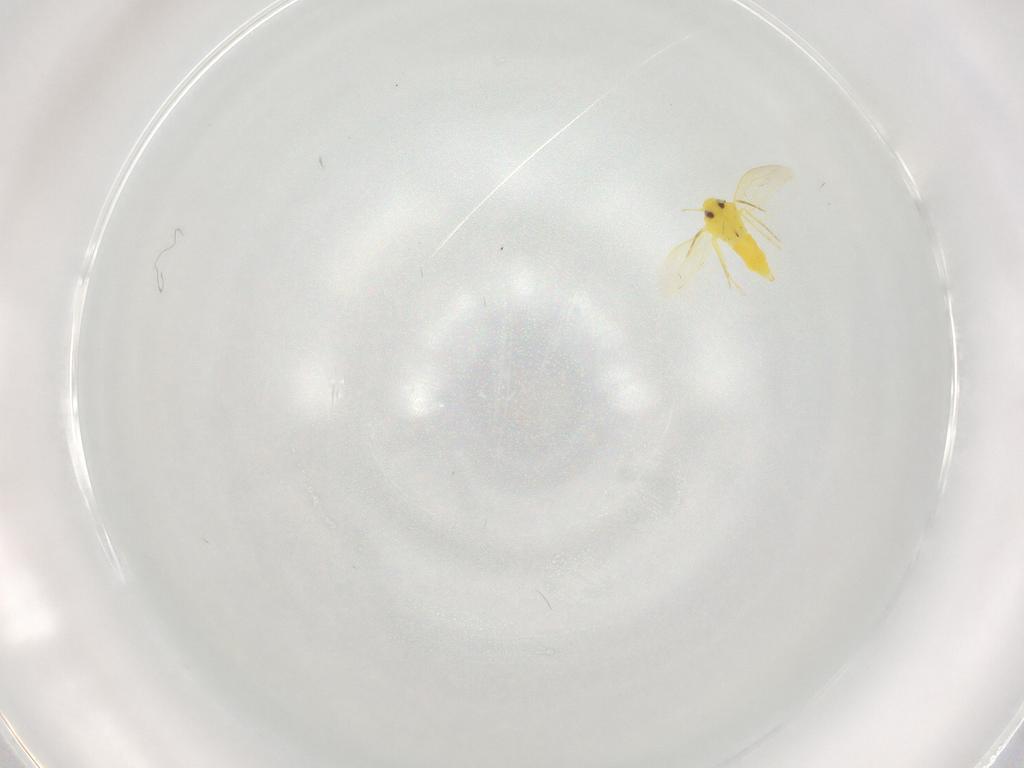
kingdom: Animalia
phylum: Arthropoda
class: Insecta
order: Hemiptera
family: Aleyrodidae
